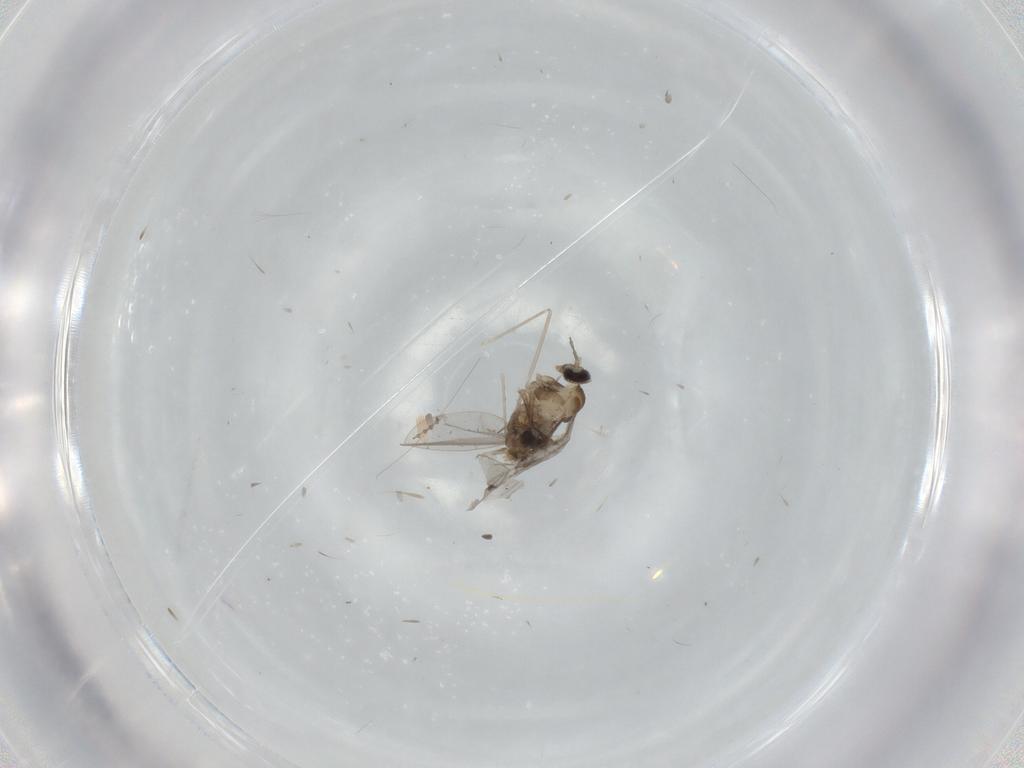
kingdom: Animalia
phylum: Arthropoda
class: Insecta
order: Diptera
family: Cecidomyiidae
